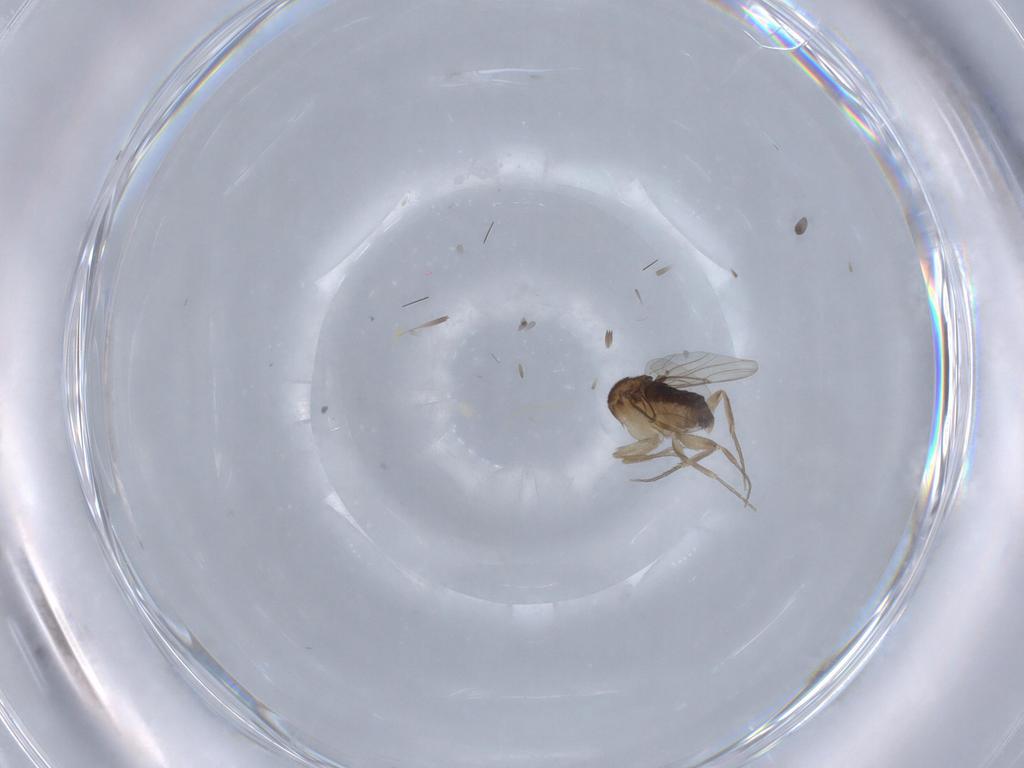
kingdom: Animalia
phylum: Arthropoda
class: Insecta
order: Diptera
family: Phoridae
